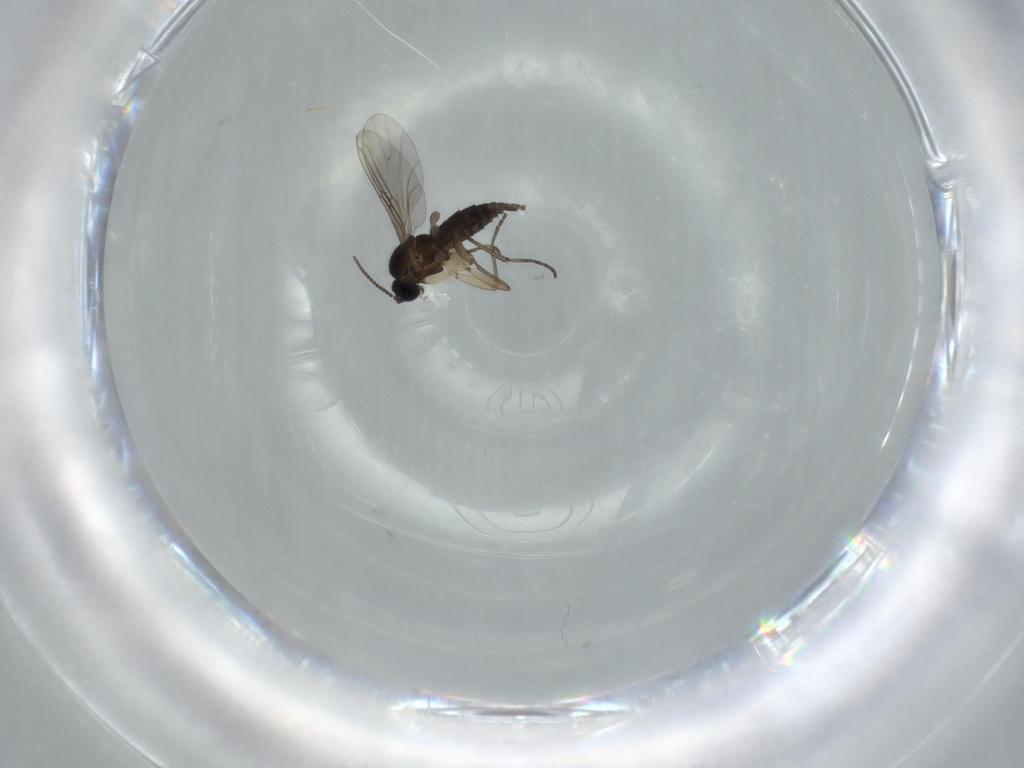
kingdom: Animalia
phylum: Arthropoda
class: Insecta
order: Diptera
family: Sciaridae
